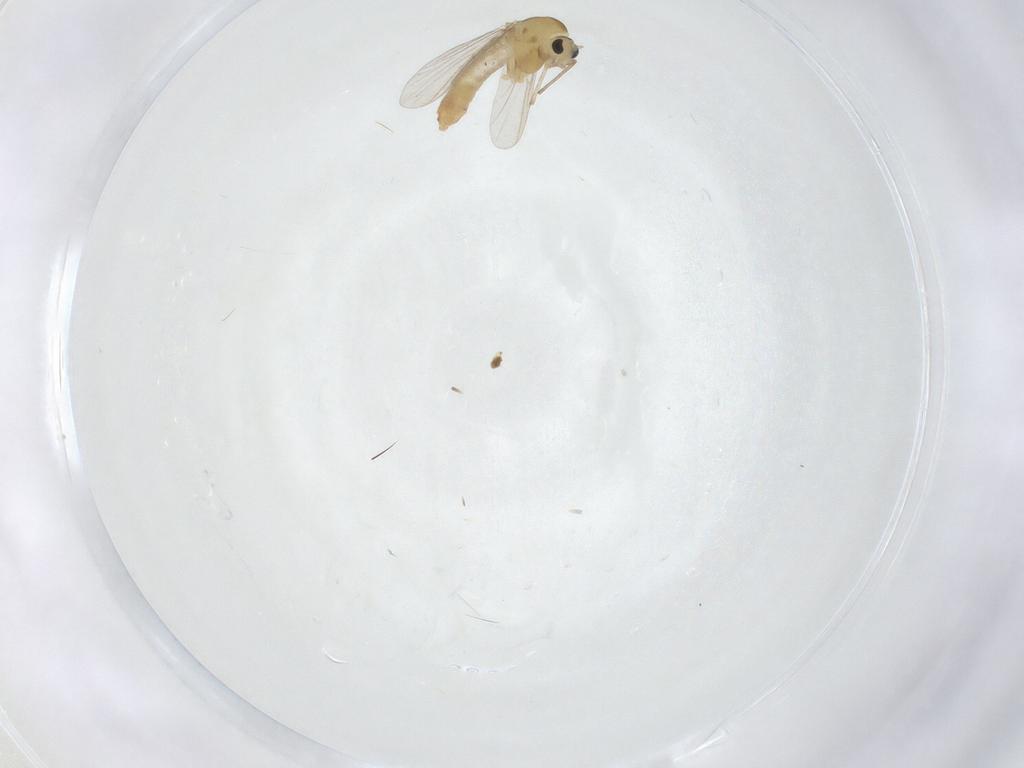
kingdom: Animalia
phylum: Arthropoda
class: Insecta
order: Diptera
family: Chironomidae
